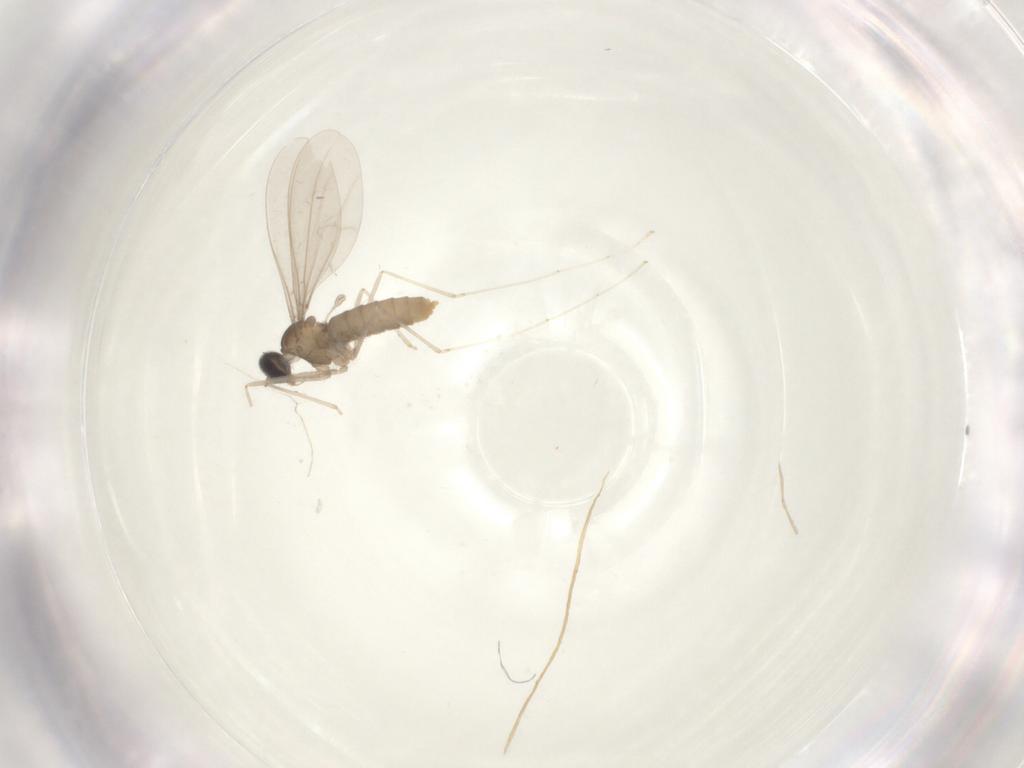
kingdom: Animalia
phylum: Arthropoda
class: Insecta
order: Diptera
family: Cecidomyiidae
